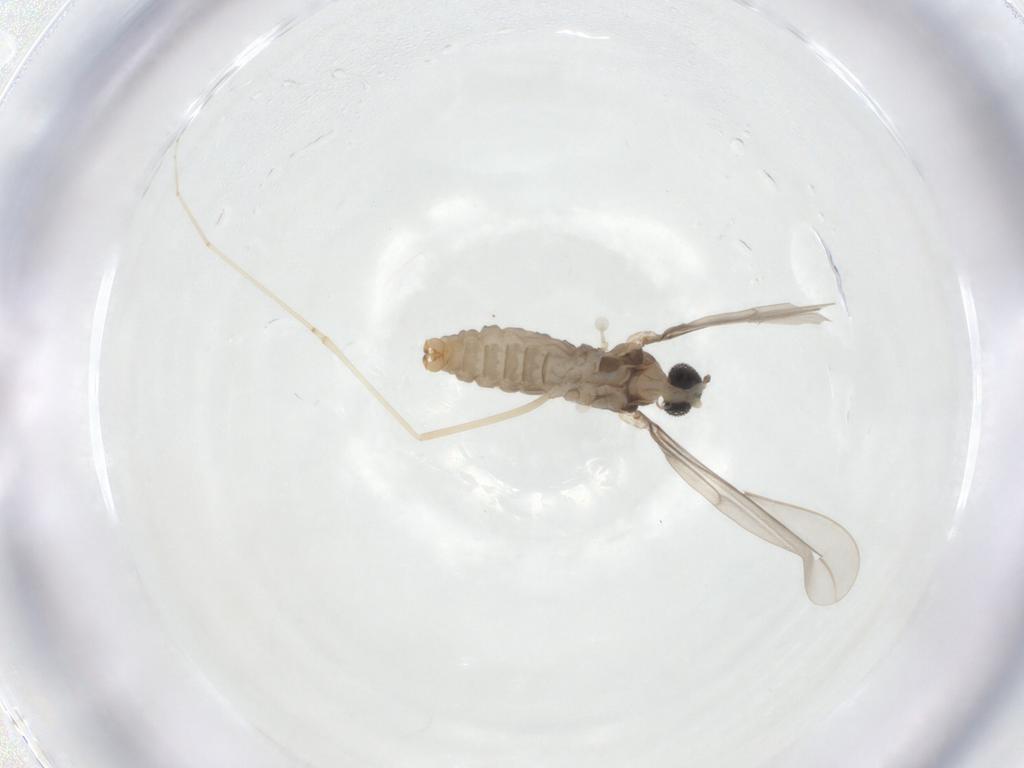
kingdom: Animalia
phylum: Arthropoda
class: Insecta
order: Diptera
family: Cecidomyiidae
